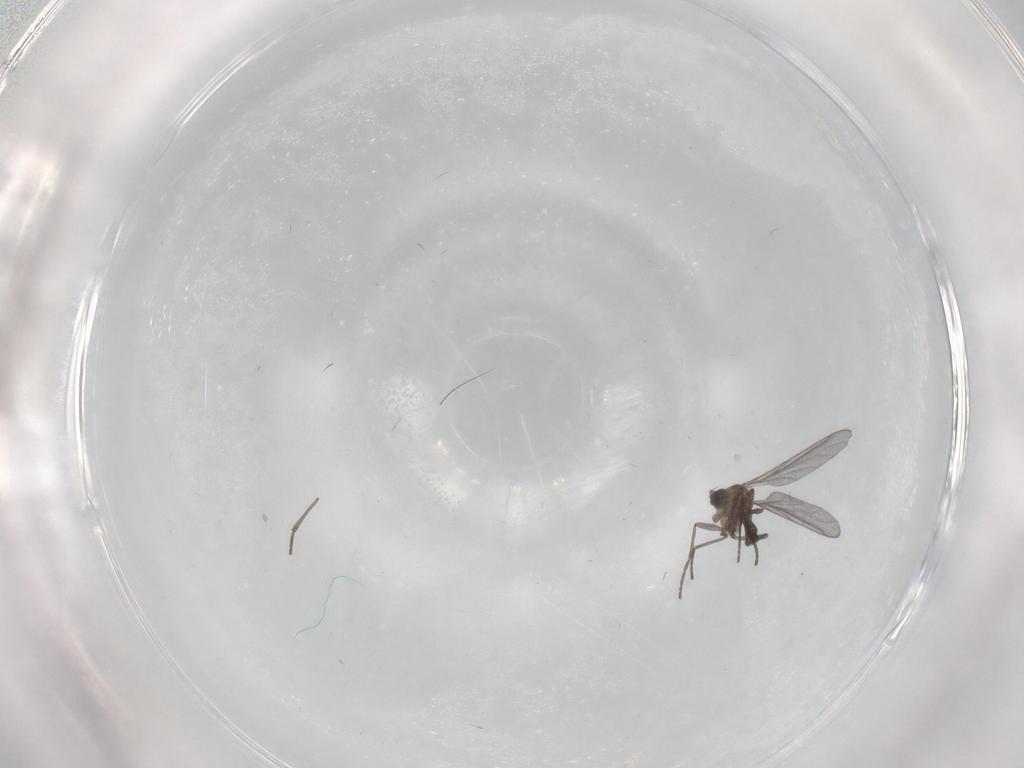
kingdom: Animalia
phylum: Arthropoda
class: Insecta
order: Diptera
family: Sciaridae
